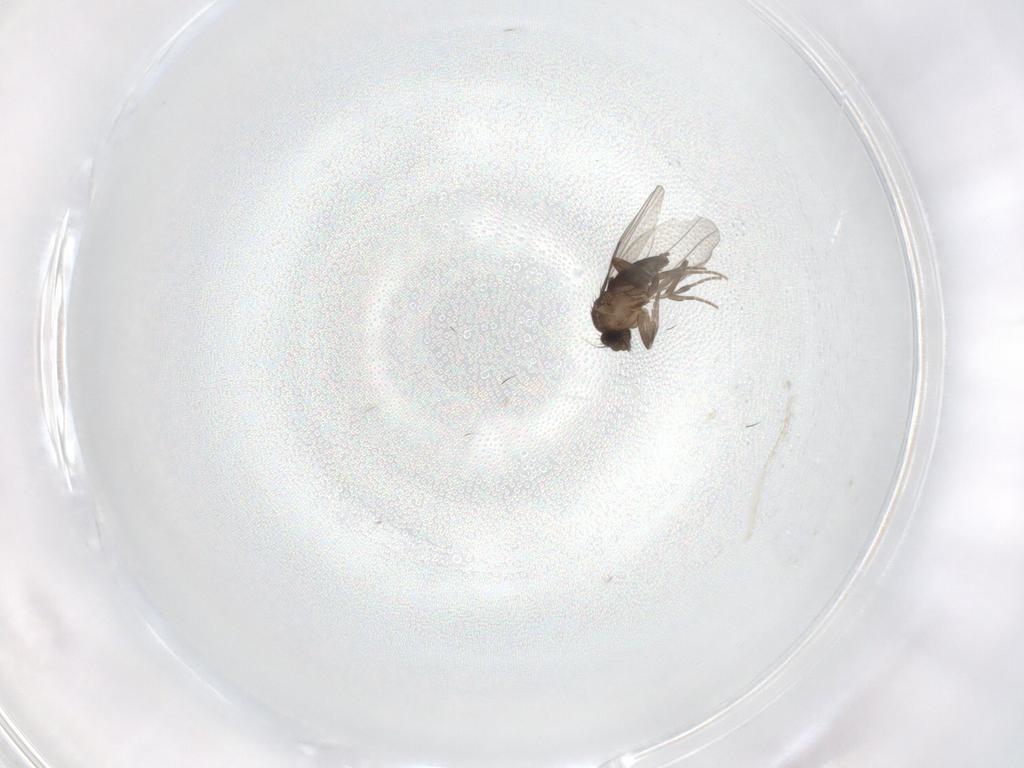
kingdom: Animalia
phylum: Arthropoda
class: Insecta
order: Diptera
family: Phoridae
